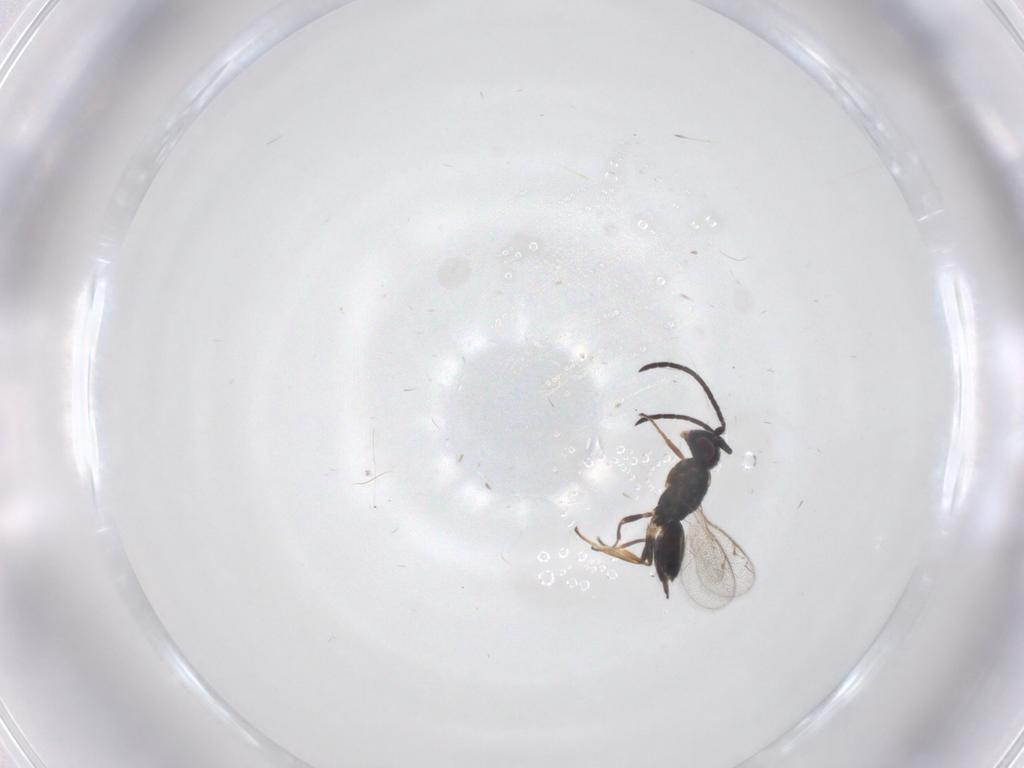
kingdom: Animalia
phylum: Arthropoda
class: Insecta
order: Hymenoptera
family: Eupelmidae
